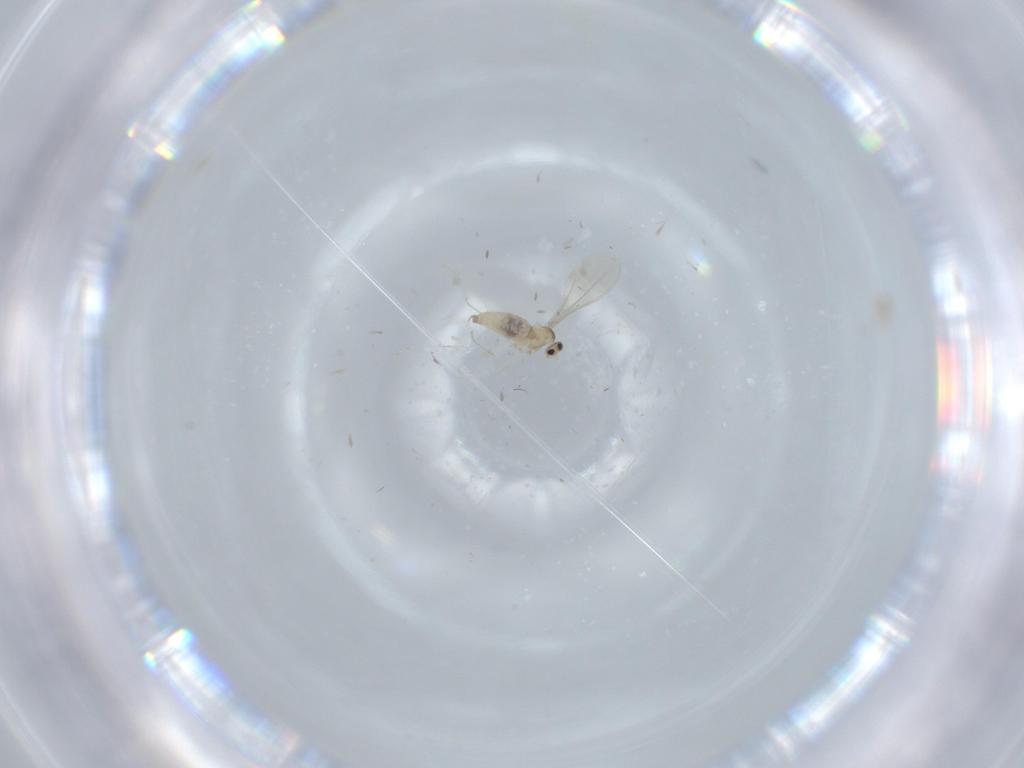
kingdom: Animalia
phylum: Arthropoda
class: Insecta
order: Diptera
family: Cecidomyiidae
